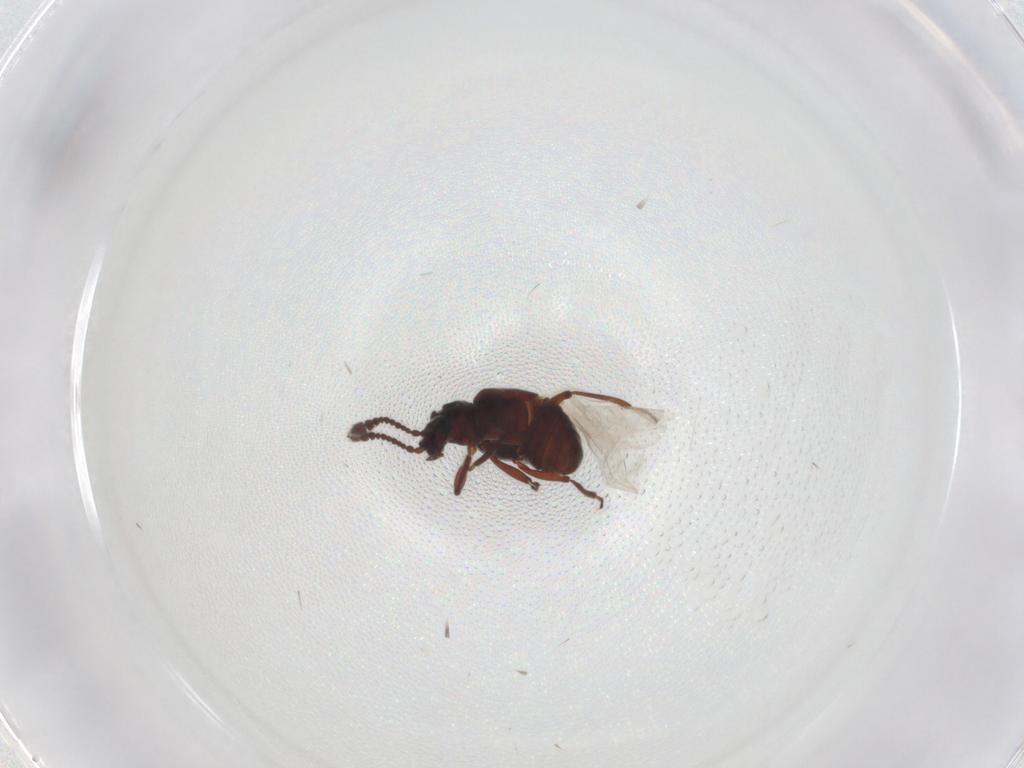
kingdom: Animalia
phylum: Arthropoda
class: Insecta
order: Coleoptera
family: Staphylinidae
